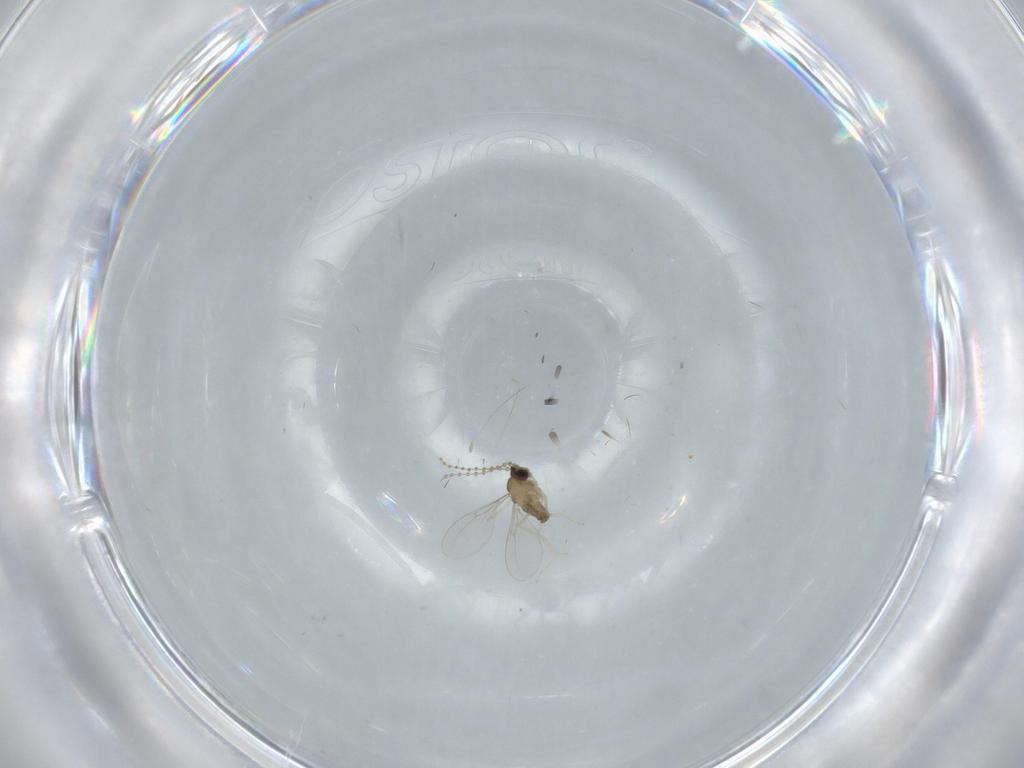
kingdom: Animalia
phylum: Arthropoda
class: Insecta
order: Diptera
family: Cecidomyiidae
